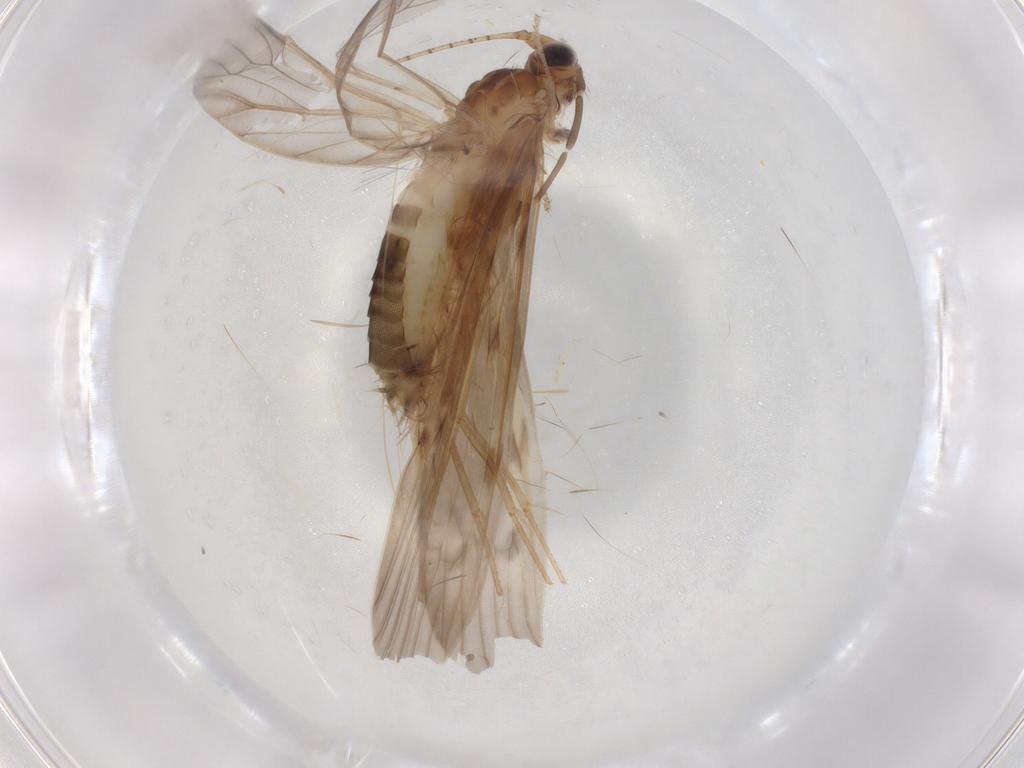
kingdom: Animalia
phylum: Arthropoda
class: Insecta
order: Trichoptera
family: Leptoceridae
